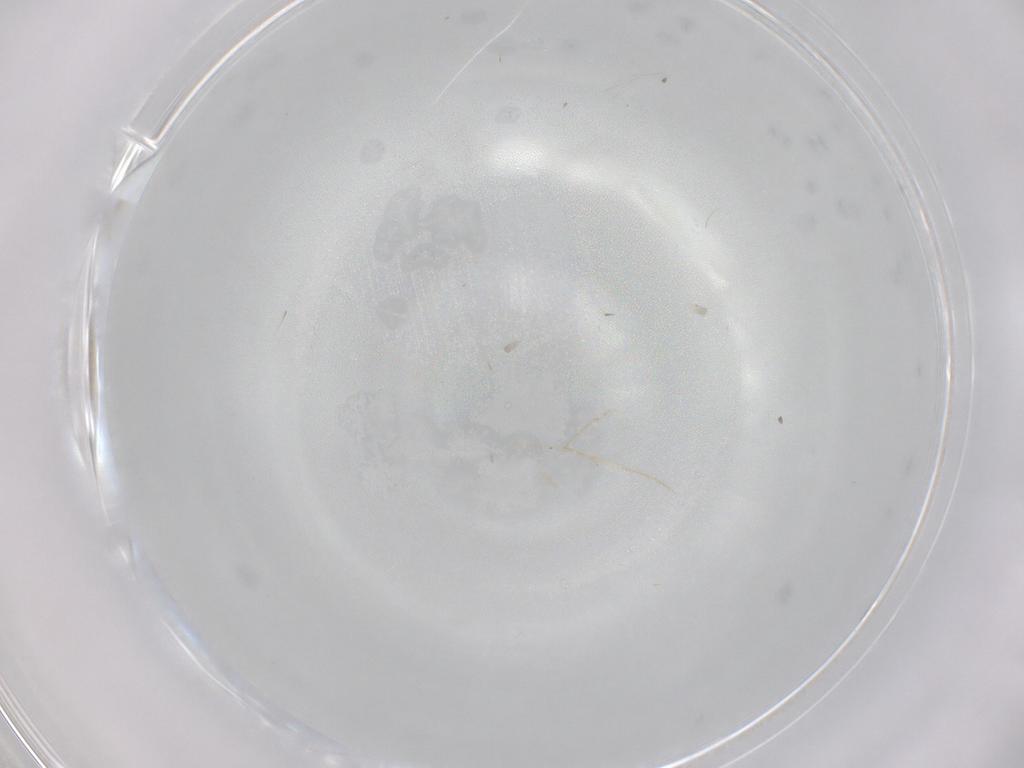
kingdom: Animalia
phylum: Arthropoda
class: Insecta
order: Diptera
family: Cecidomyiidae
